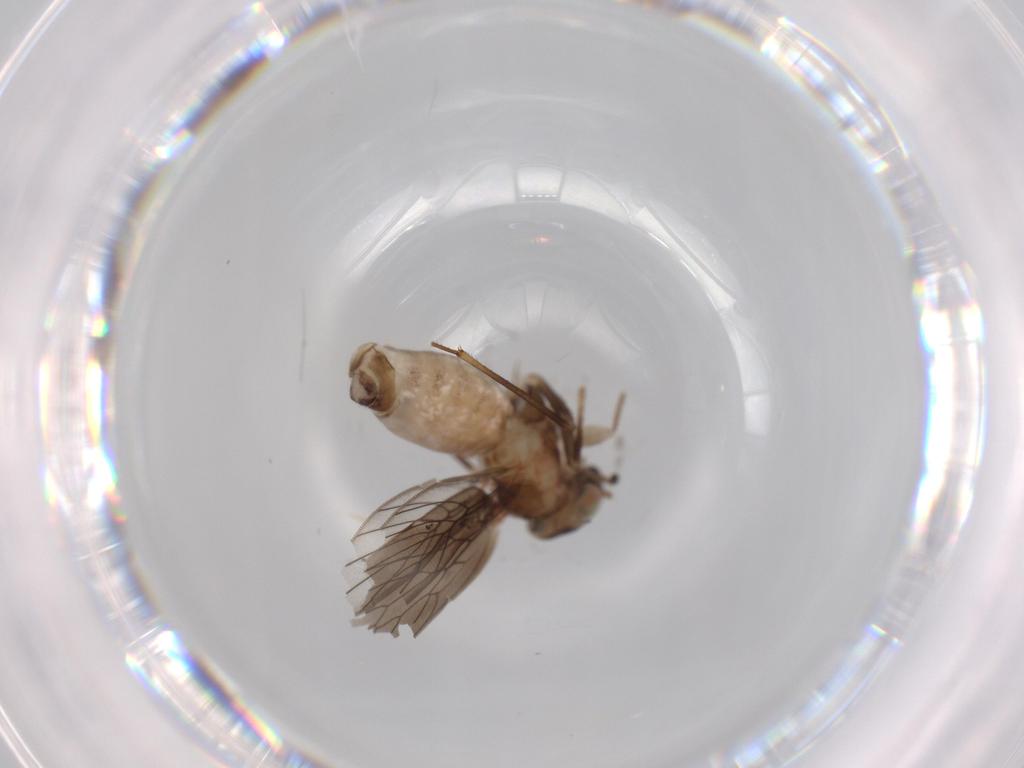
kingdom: Animalia
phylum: Arthropoda
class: Insecta
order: Psocodea
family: Lepidopsocidae
